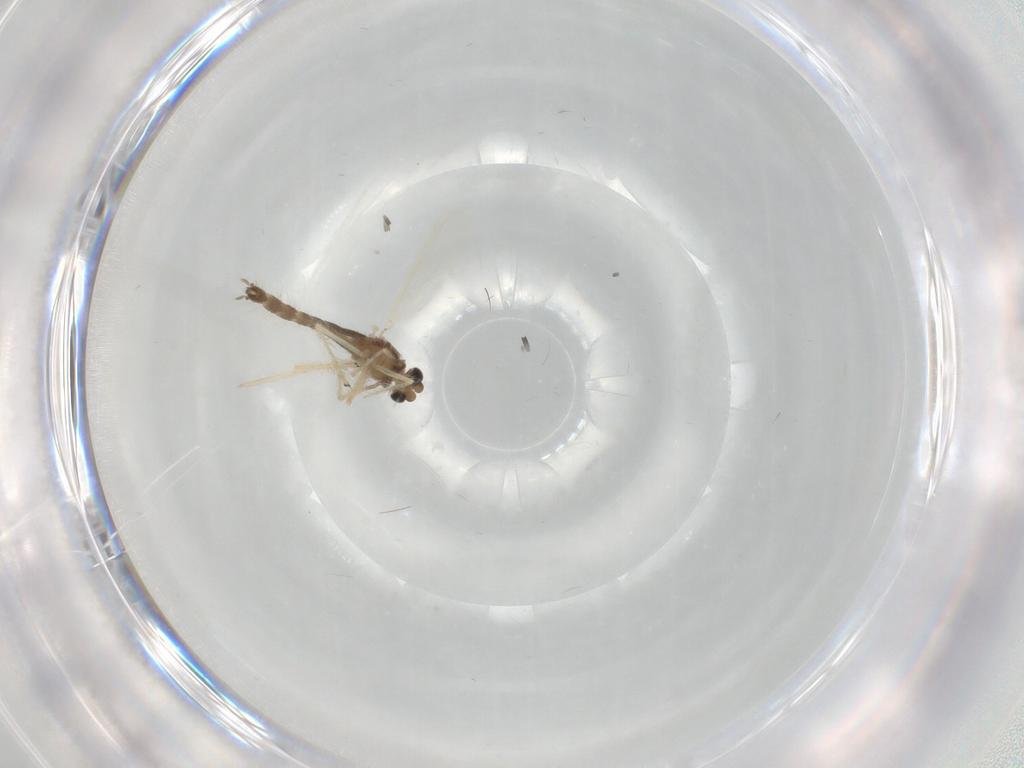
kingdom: Animalia
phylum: Arthropoda
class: Insecta
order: Diptera
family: Chironomidae
